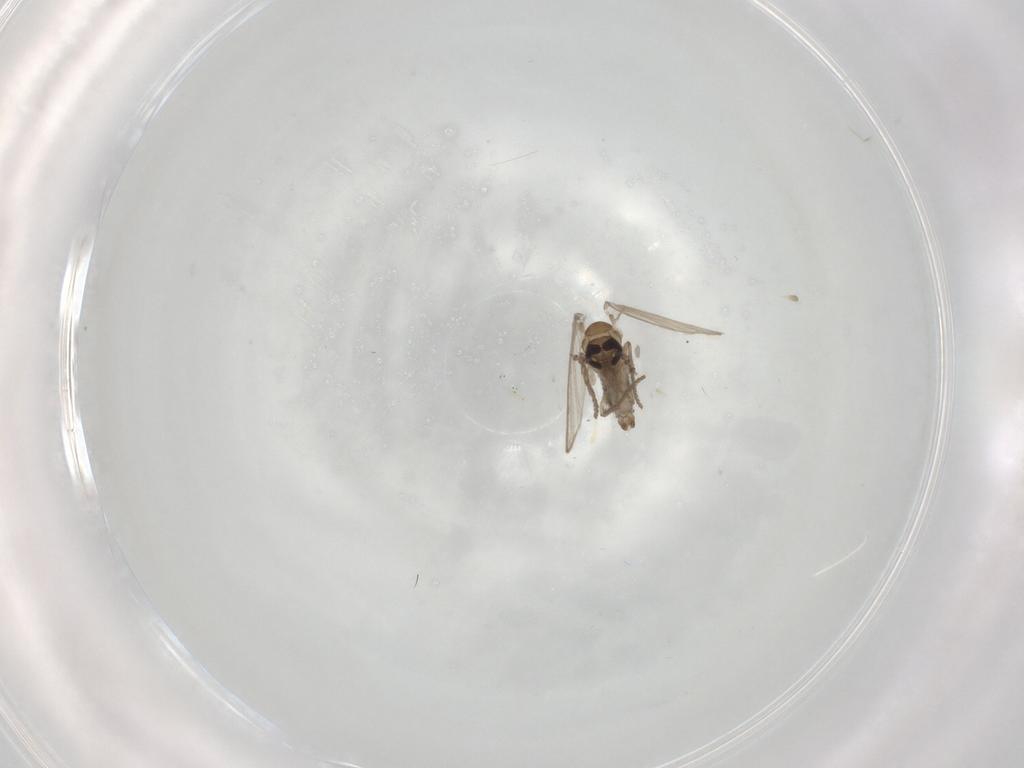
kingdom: Animalia
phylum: Arthropoda
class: Insecta
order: Diptera
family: Psychodidae
